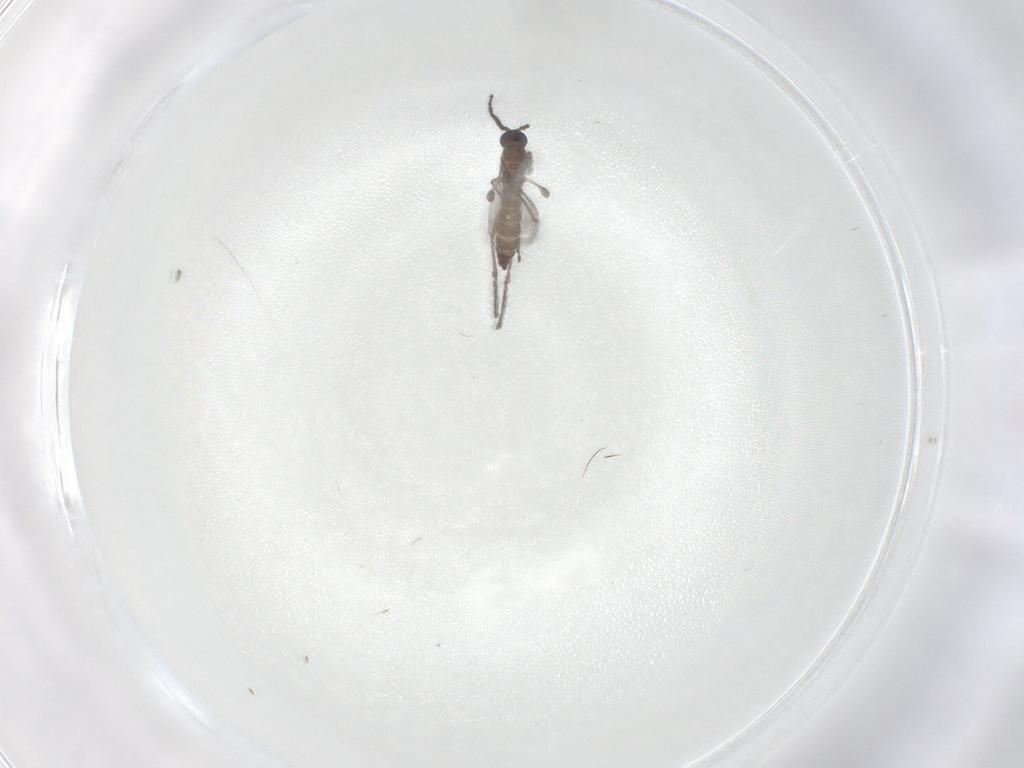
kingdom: Animalia
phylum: Arthropoda
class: Insecta
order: Diptera
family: Sciaridae
